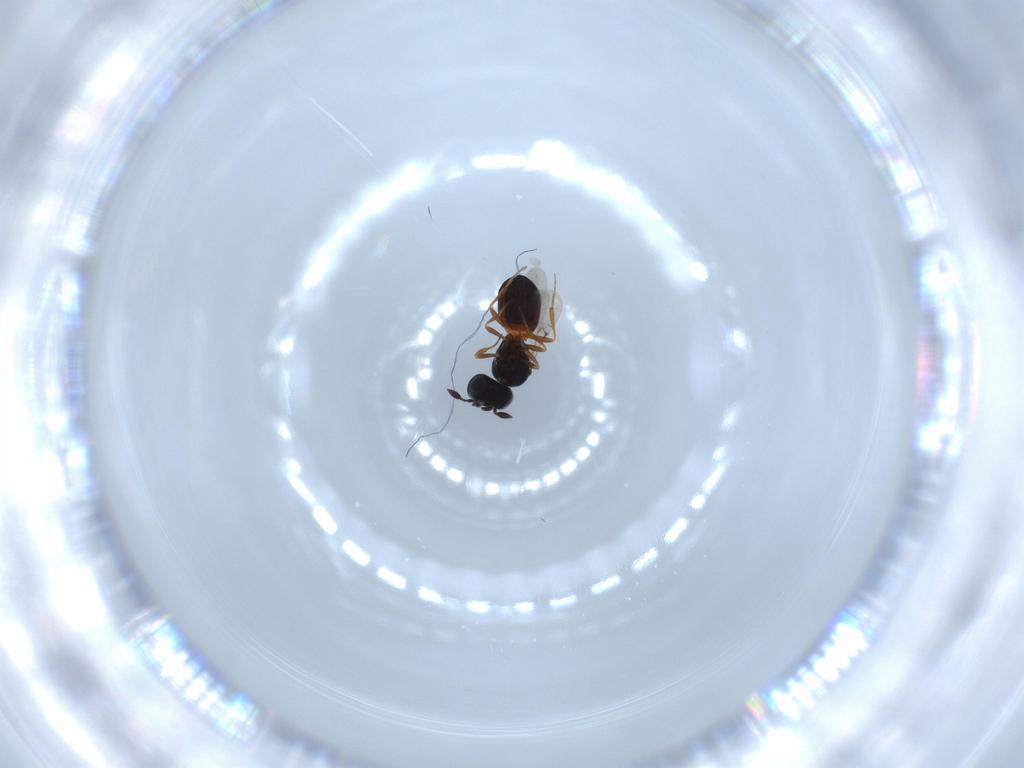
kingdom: Animalia
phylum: Arthropoda
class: Insecta
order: Hymenoptera
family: Scelionidae
